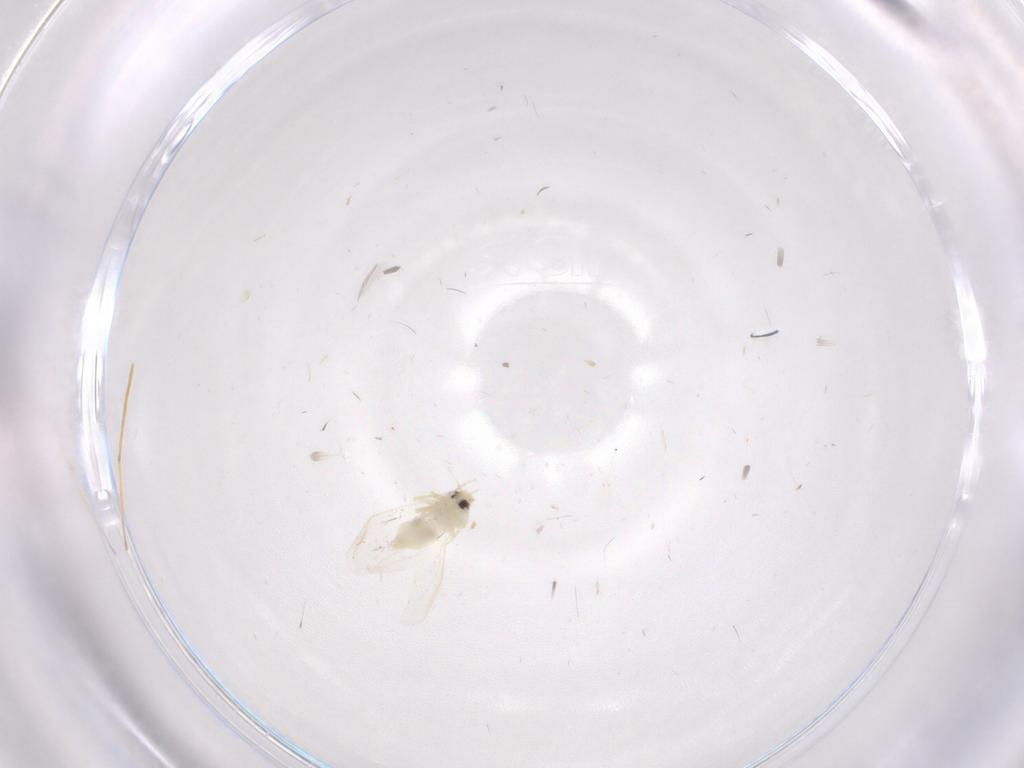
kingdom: Animalia
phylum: Arthropoda
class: Insecta
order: Hemiptera
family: Aleyrodidae
